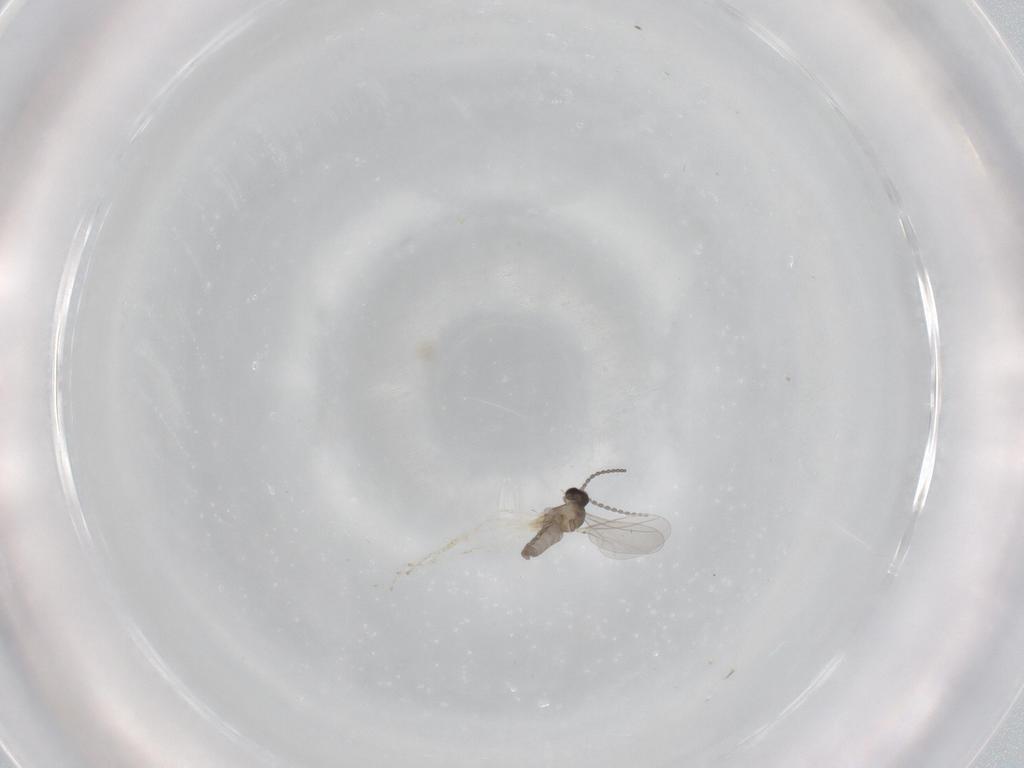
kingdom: Animalia
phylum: Arthropoda
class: Insecta
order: Diptera
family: Cecidomyiidae
